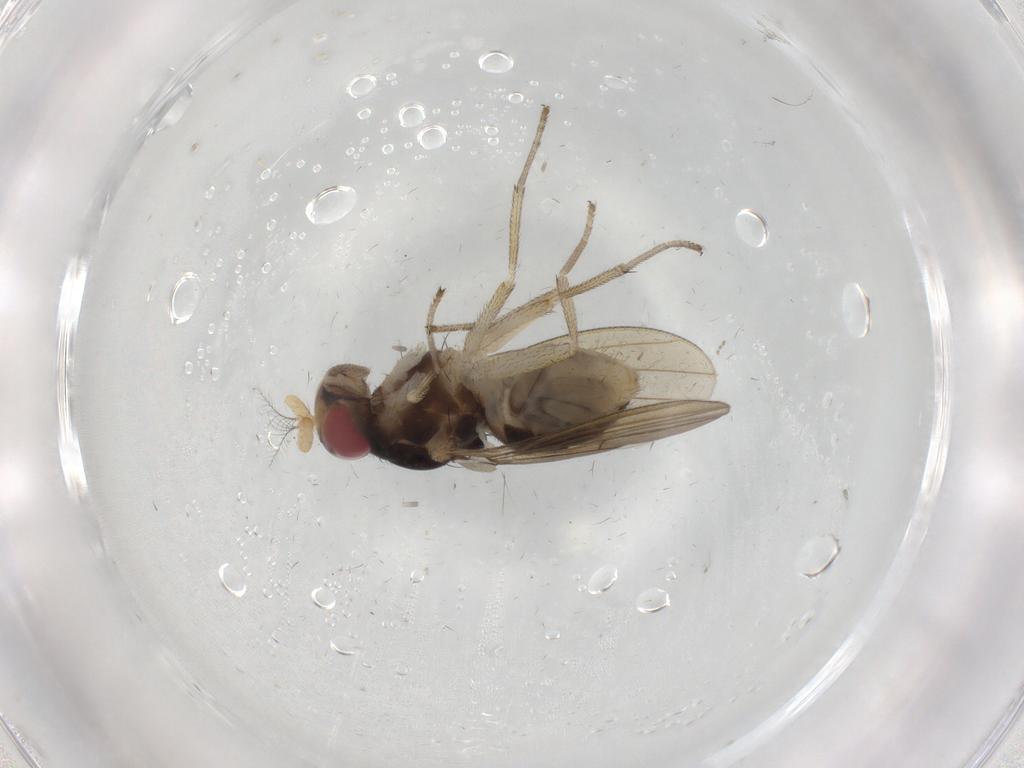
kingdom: Animalia
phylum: Arthropoda
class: Insecta
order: Diptera
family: Lauxaniidae
